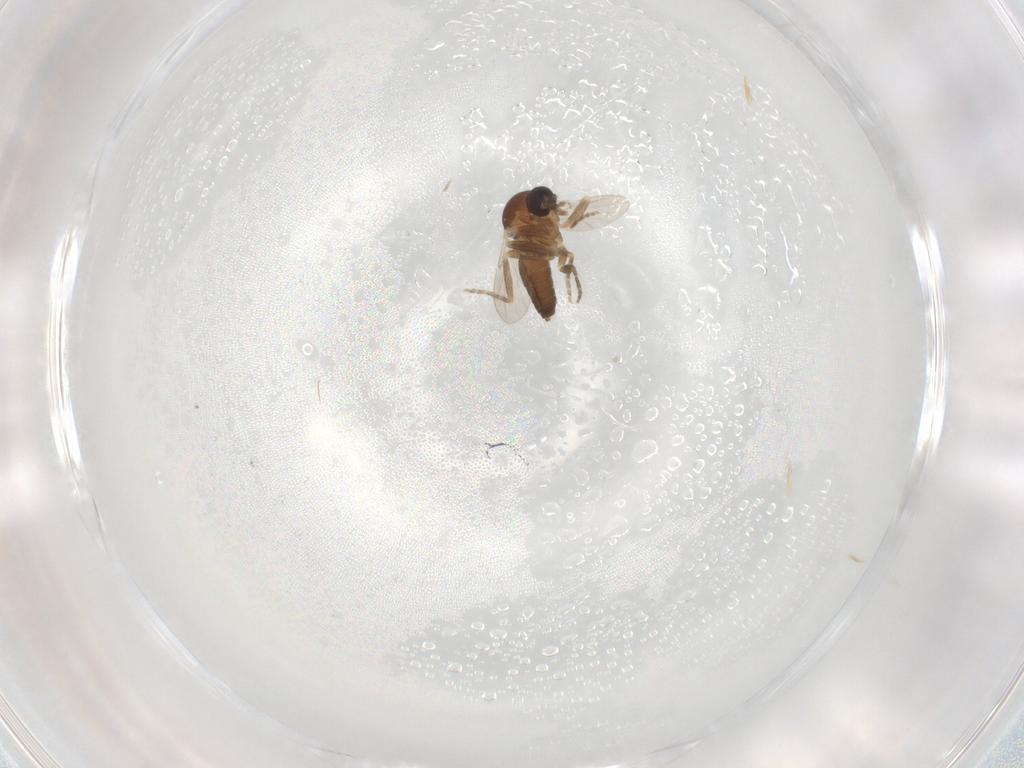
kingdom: Animalia
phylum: Arthropoda
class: Insecta
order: Diptera
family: Ceratopogonidae
